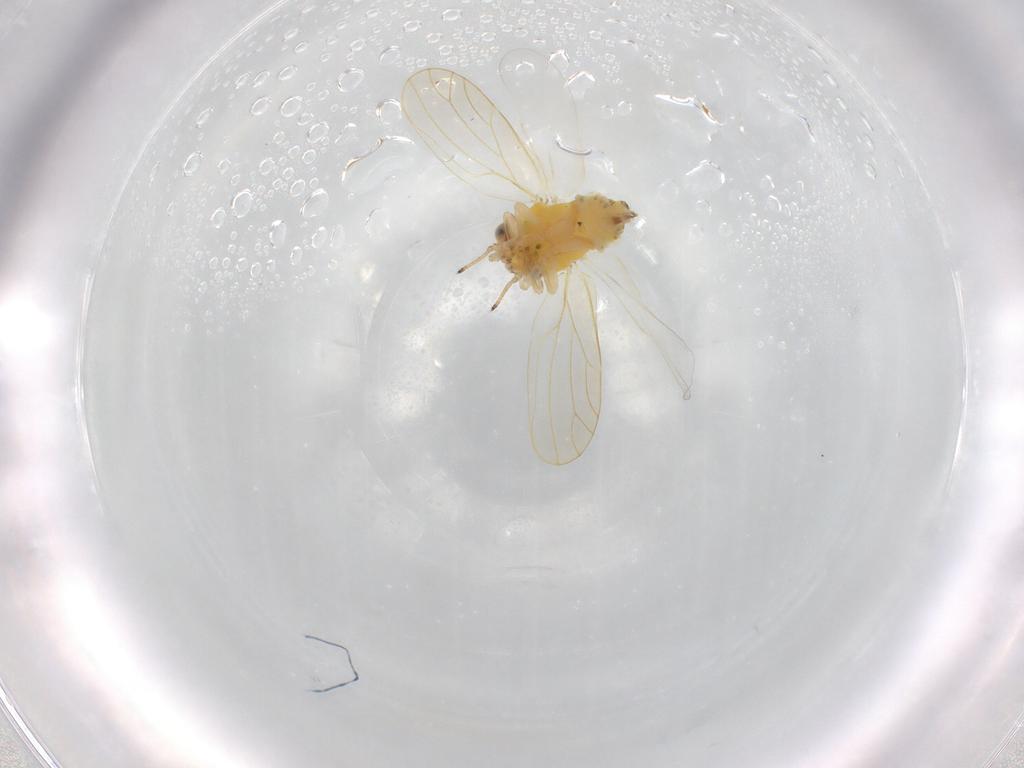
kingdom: Animalia
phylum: Arthropoda
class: Insecta
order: Hemiptera
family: Aphalaridae
